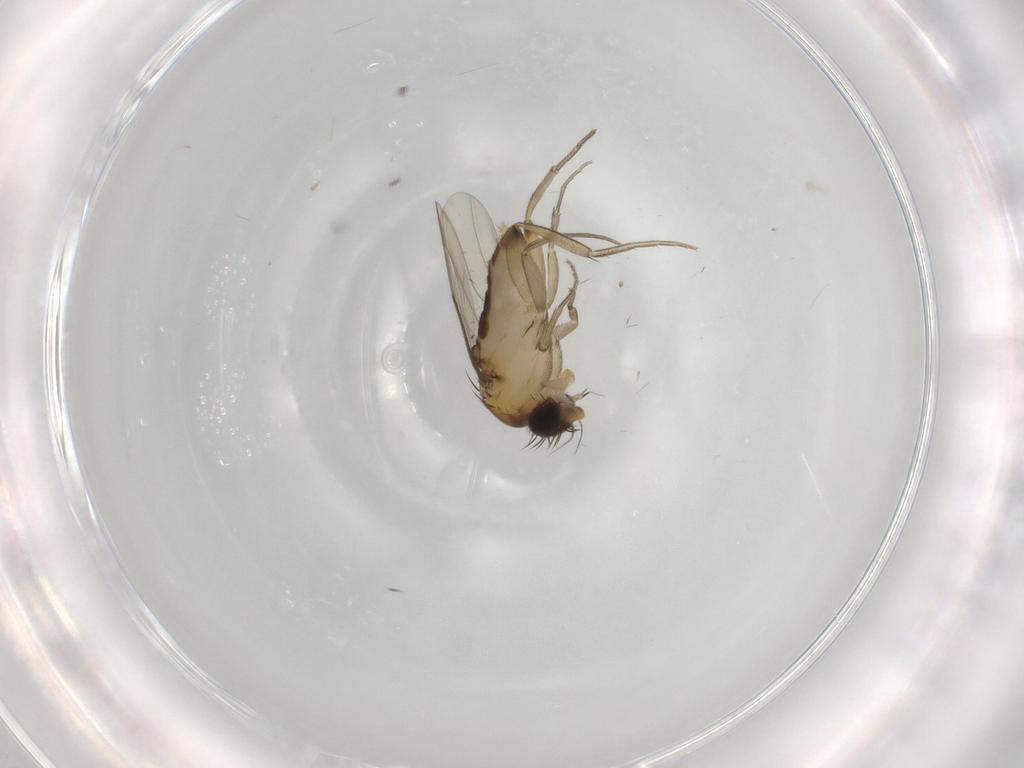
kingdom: Animalia
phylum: Arthropoda
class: Insecta
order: Diptera
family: Phoridae
